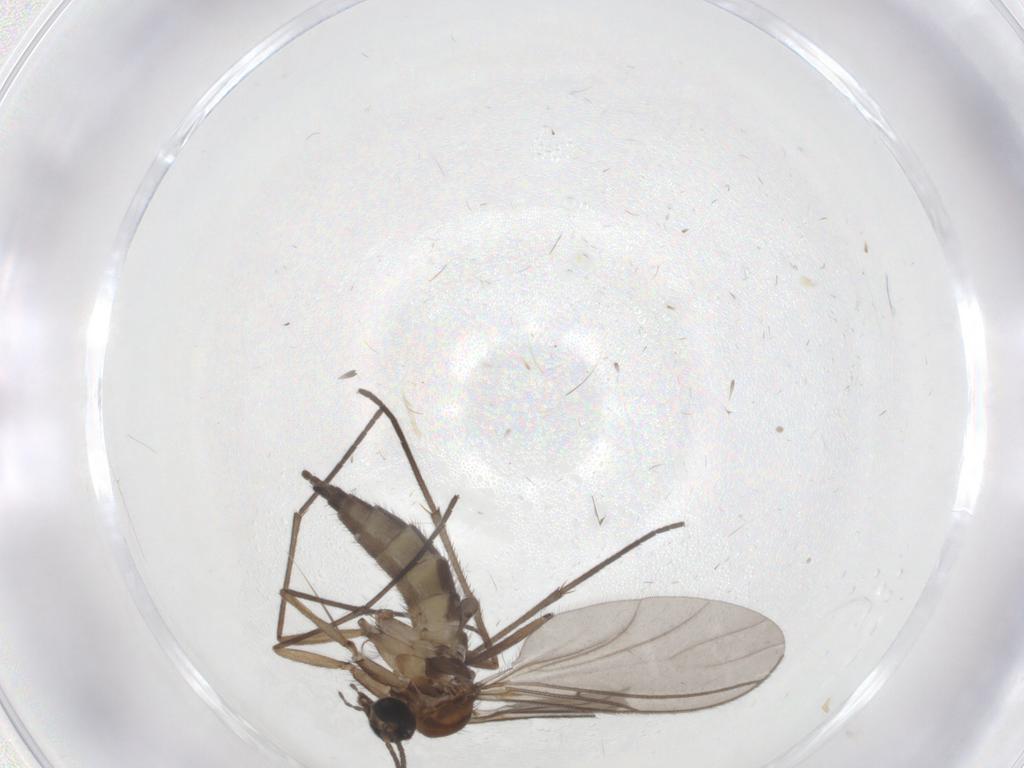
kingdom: Animalia
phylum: Arthropoda
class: Insecta
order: Diptera
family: Sciaridae
